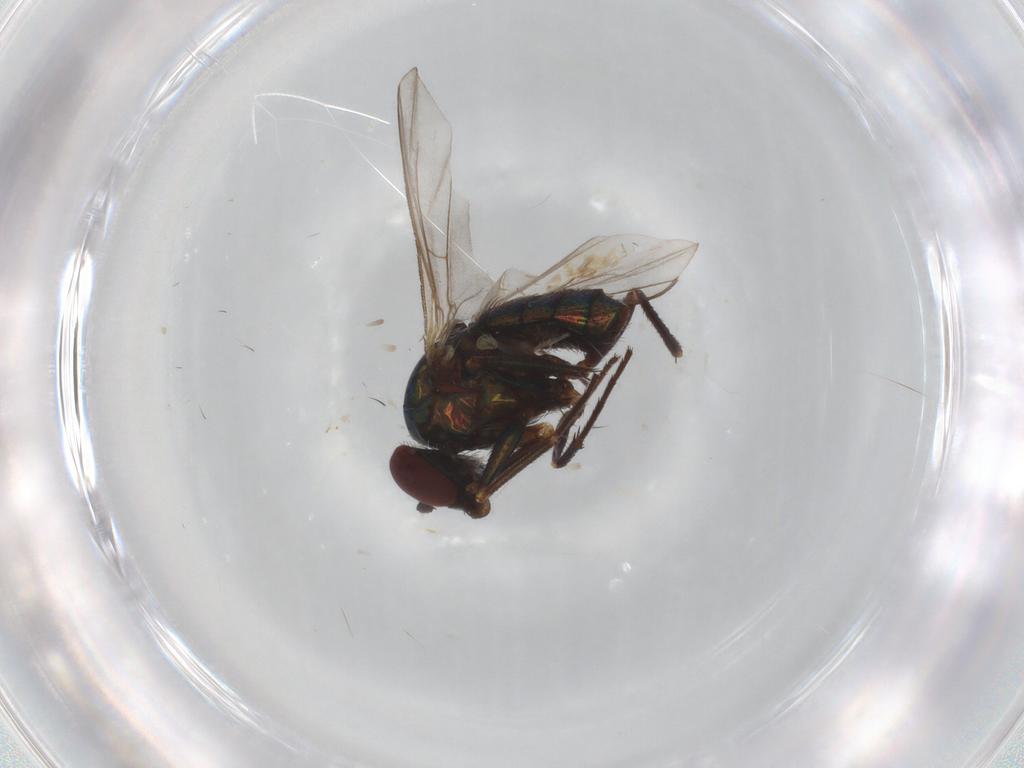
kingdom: Animalia
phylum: Arthropoda
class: Insecta
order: Diptera
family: Dolichopodidae
